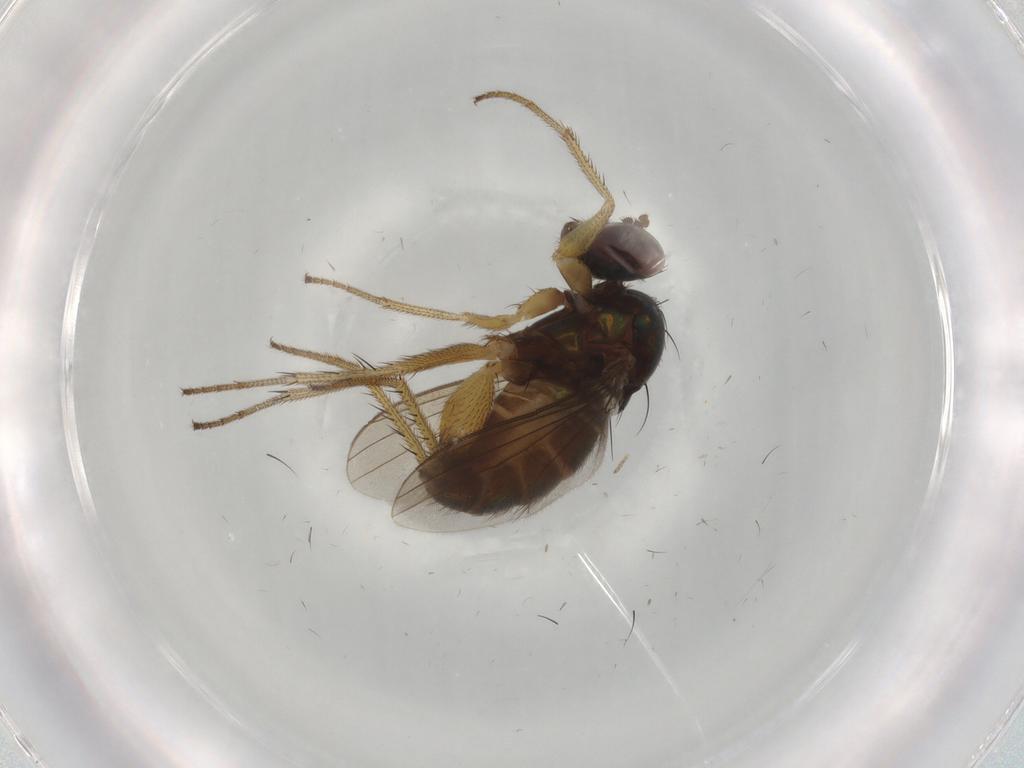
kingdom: Animalia
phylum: Arthropoda
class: Insecta
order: Diptera
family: Dolichopodidae
